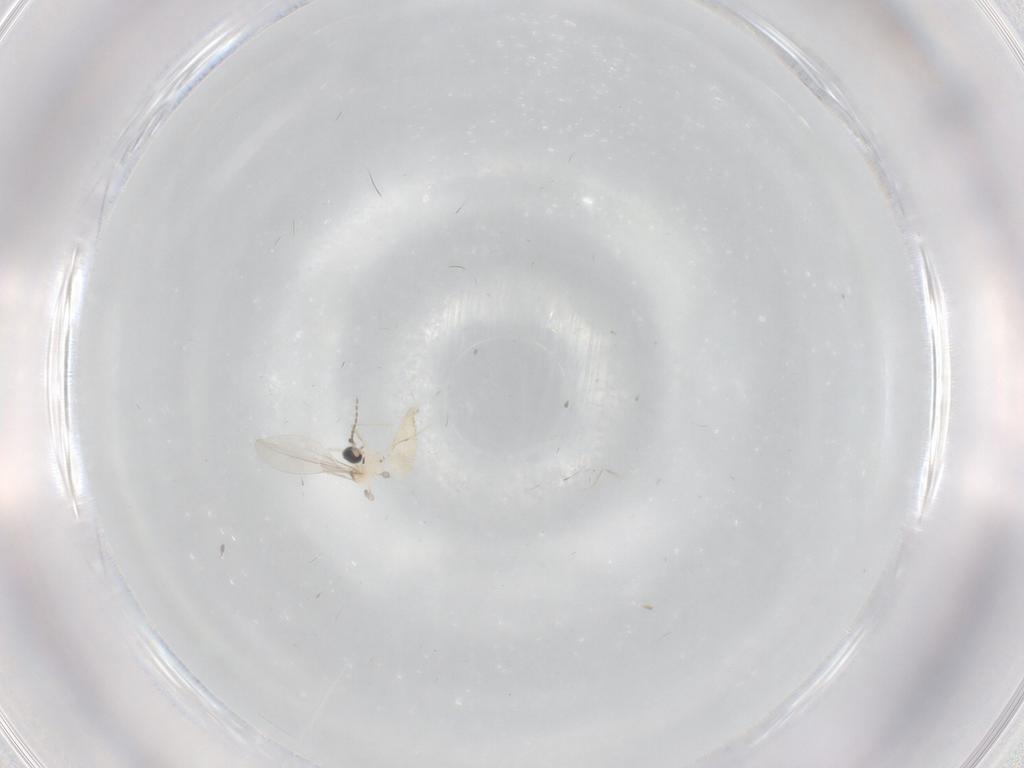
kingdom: Animalia
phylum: Arthropoda
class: Insecta
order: Diptera
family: Cecidomyiidae
